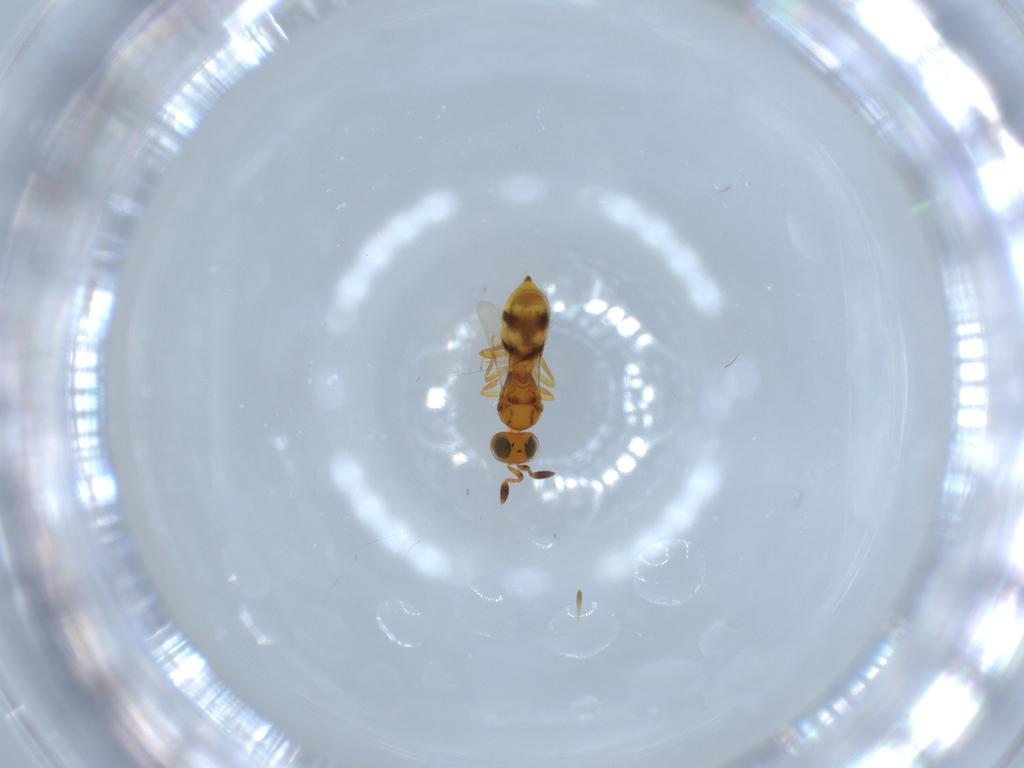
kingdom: Animalia
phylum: Arthropoda
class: Insecta
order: Hymenoptera
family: Scelionidae
